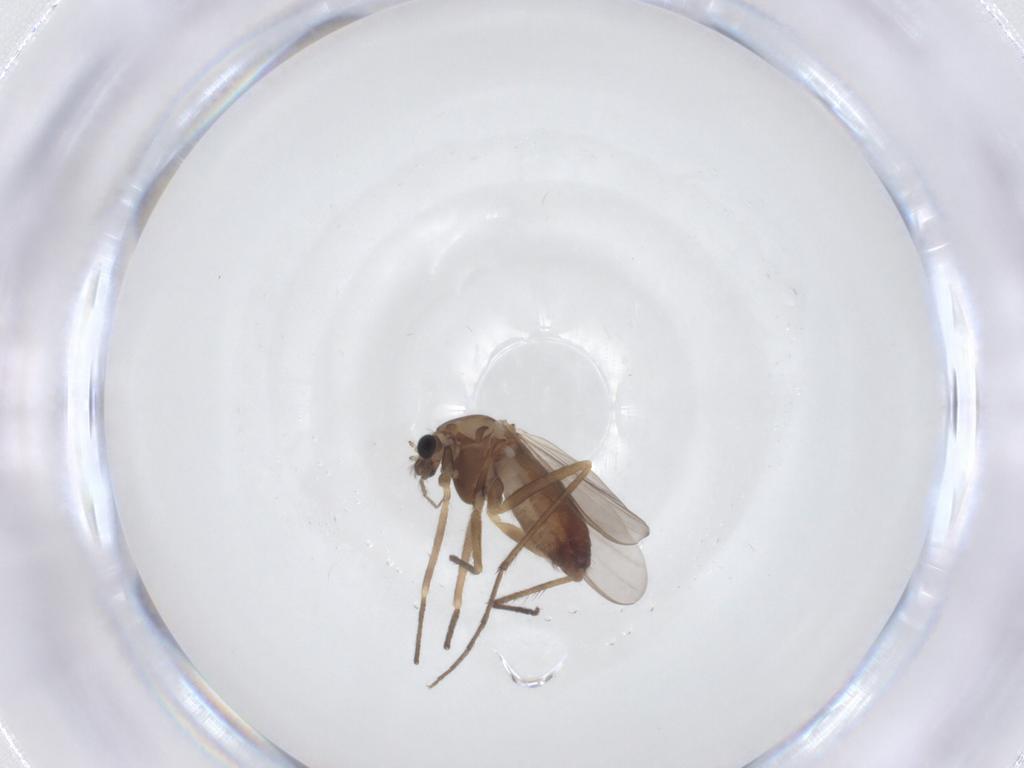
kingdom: Animalia
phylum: Arthropoda
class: Insecta
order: Diptera
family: Chironomidae
